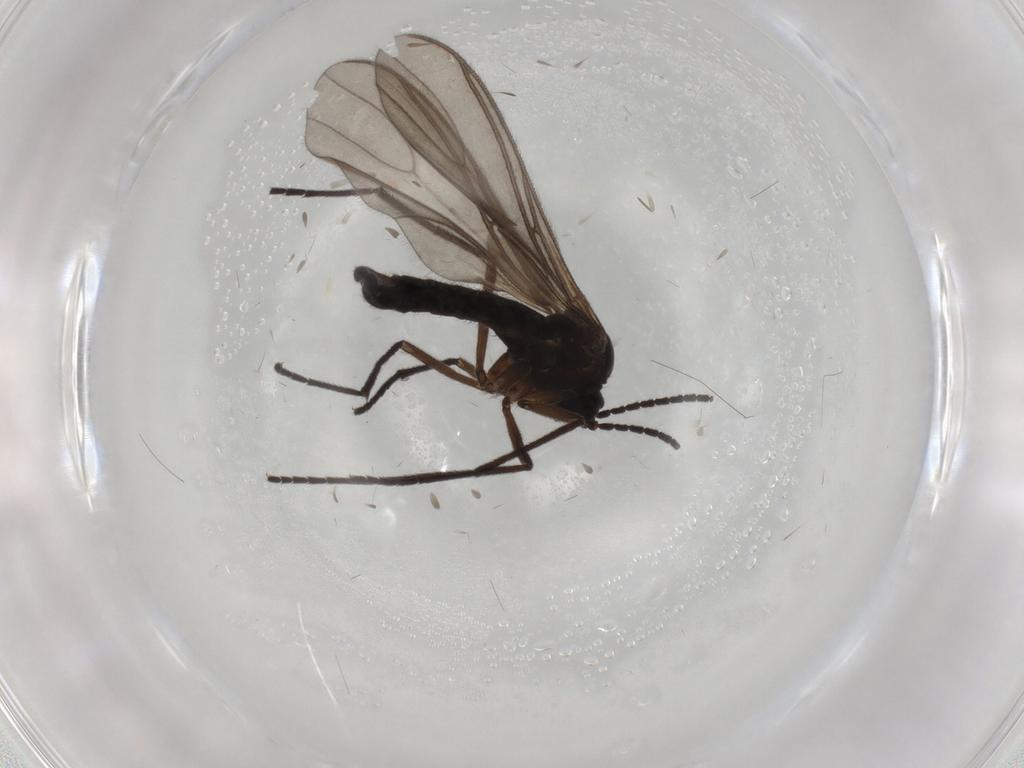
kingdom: Animalia
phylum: Arthropoda
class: Insecta
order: Diptera
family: Sciaridae
